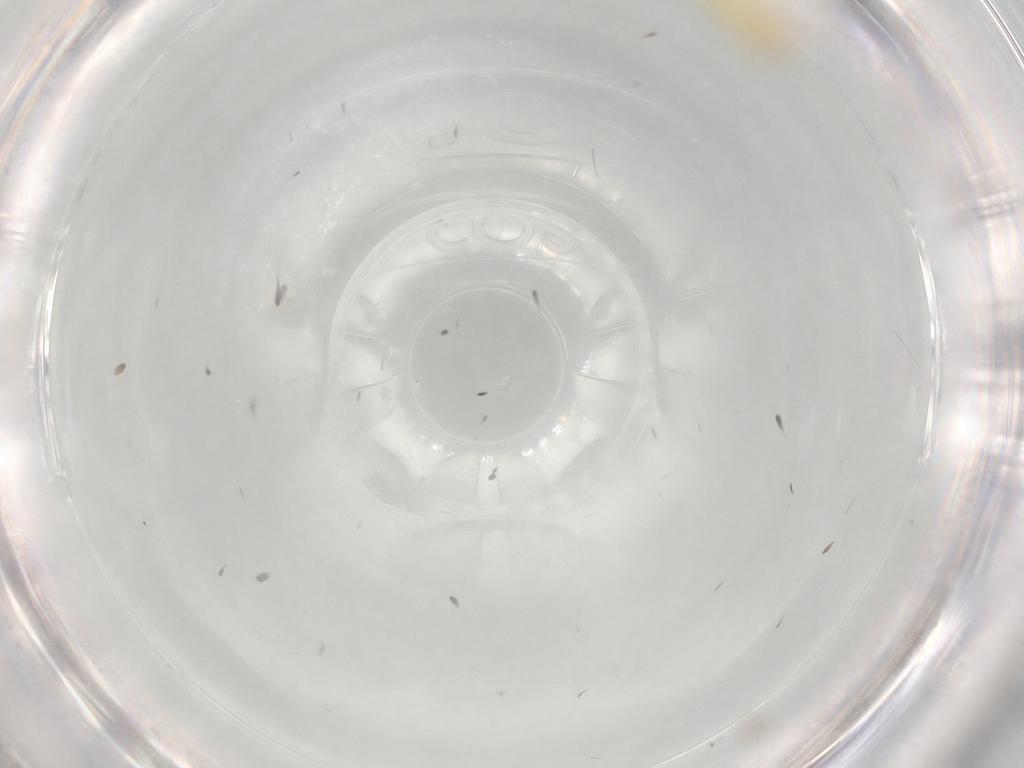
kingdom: Animalia
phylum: Arthropoda
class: Insecta
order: Diptera
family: Limoniidae
